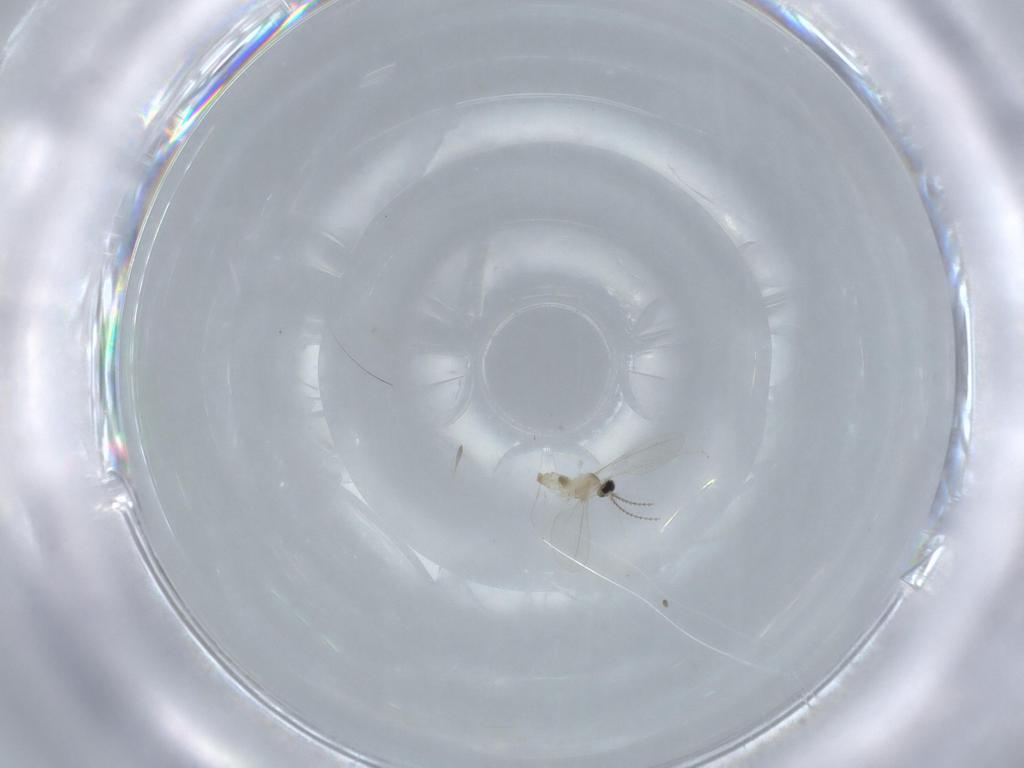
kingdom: Animalia
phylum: Arthropoda
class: Insecta
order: Diptera
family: Cecidomyiidae
